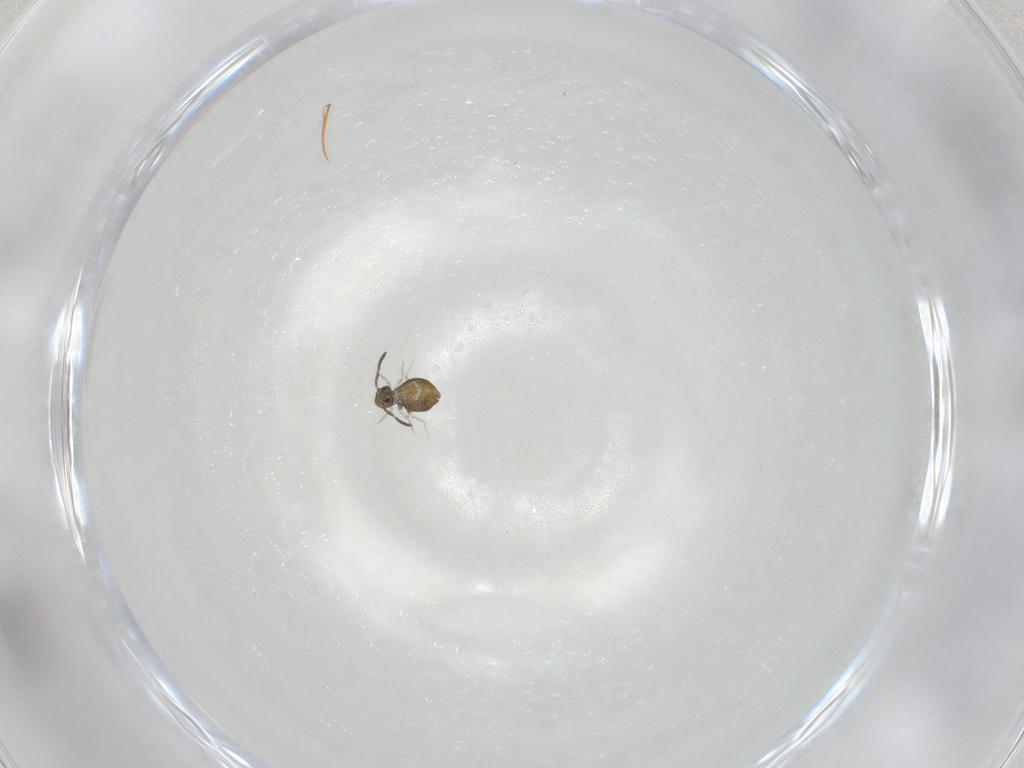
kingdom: Animalia
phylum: Arthropoda
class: Collembola
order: Symphypleona
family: Katiannidae
